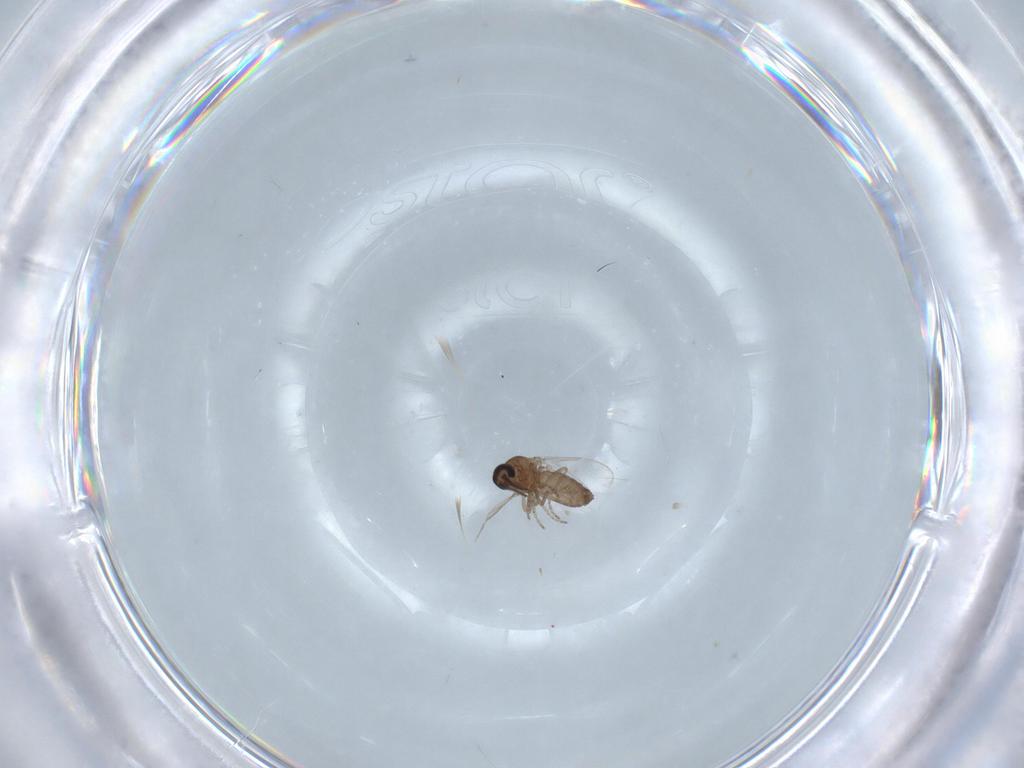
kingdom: Animalia
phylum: Arthropoda
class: Insecta
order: Diptera
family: Ceratopogonidae
